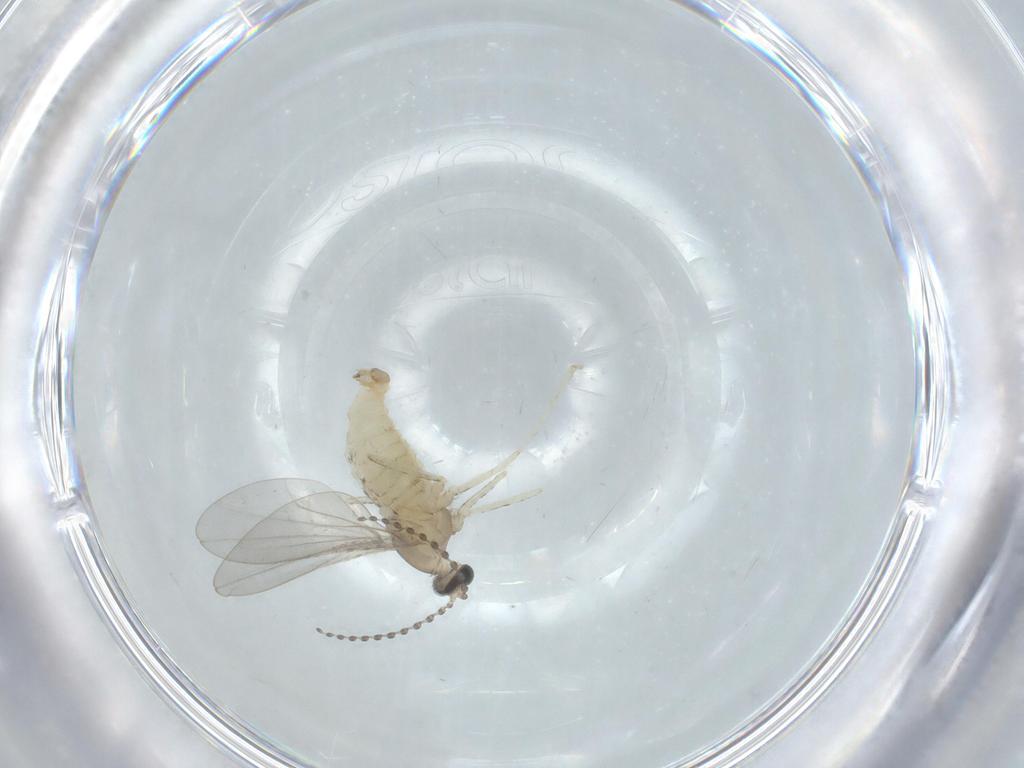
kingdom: Animalia
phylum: Arthropoda
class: Insecta
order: Diptera
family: Cecidomyiidae
